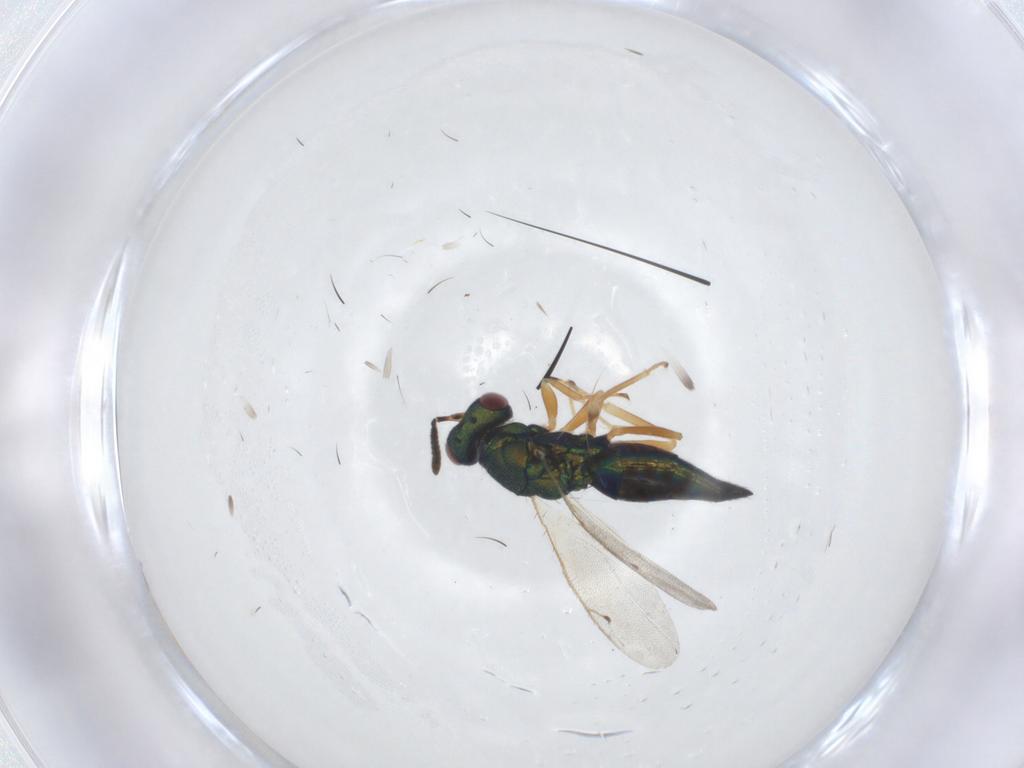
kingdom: Animalia
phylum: Arthropoda
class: Insecta
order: Hymenoptera
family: Pteromalidae
